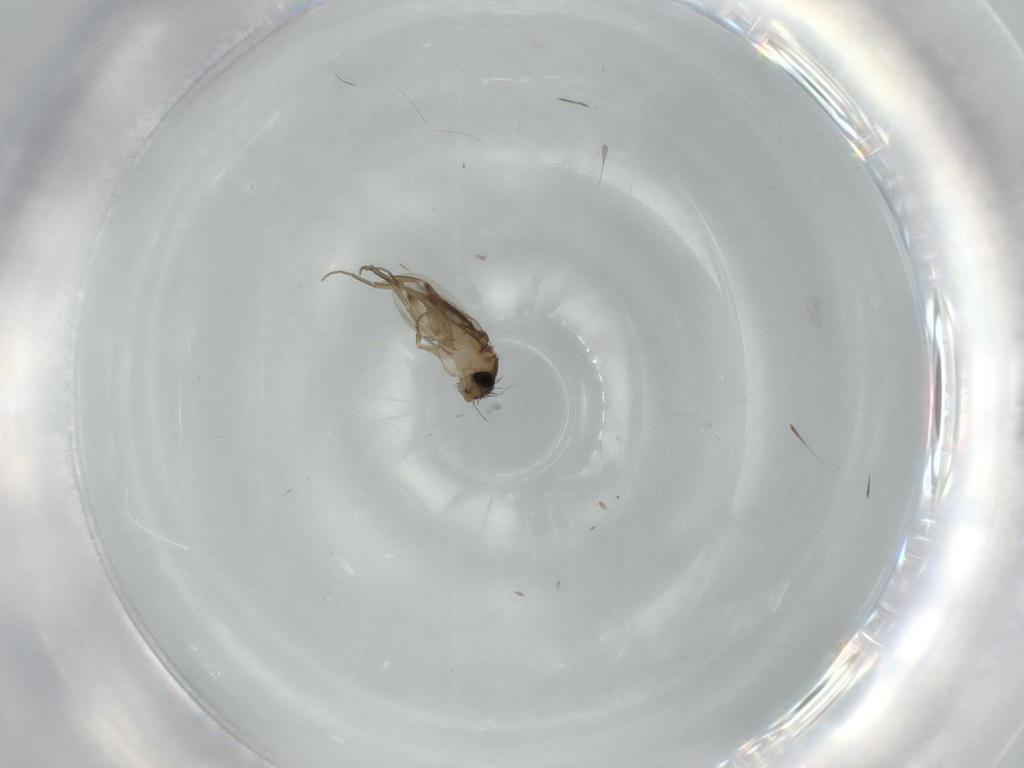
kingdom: Animalia
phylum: Arthropoda
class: Insecta
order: Diptera
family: Phoridae
